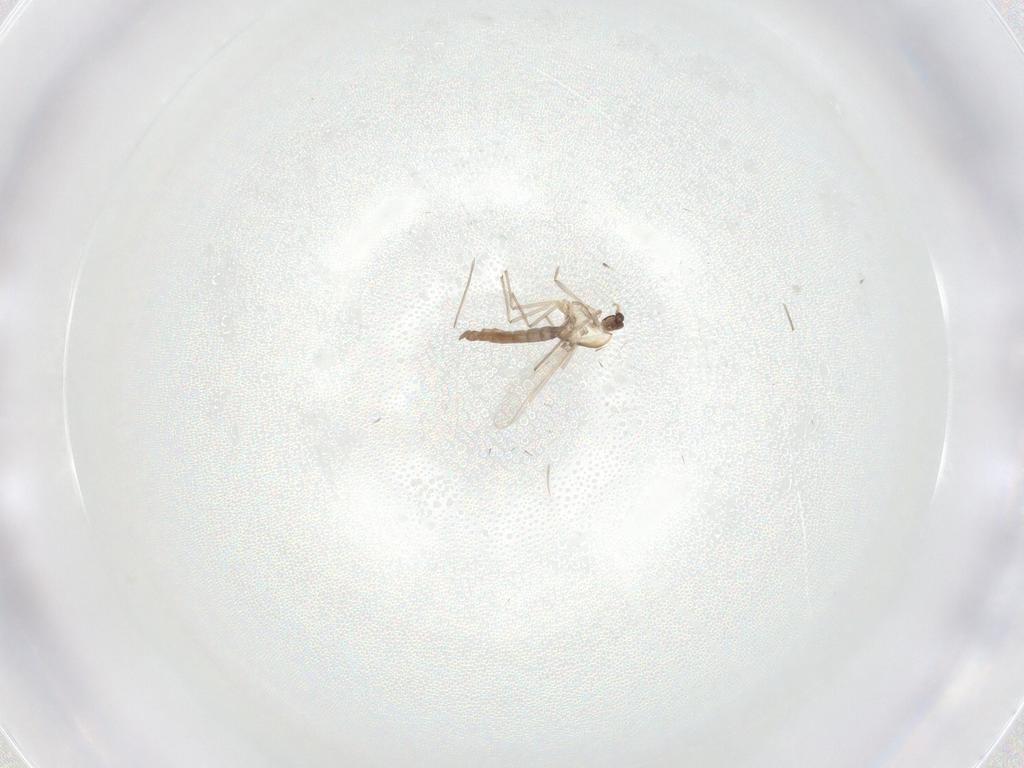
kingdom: Animalia
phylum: Arthropoda
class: Insecta
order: Diptera
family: Chironomidae
